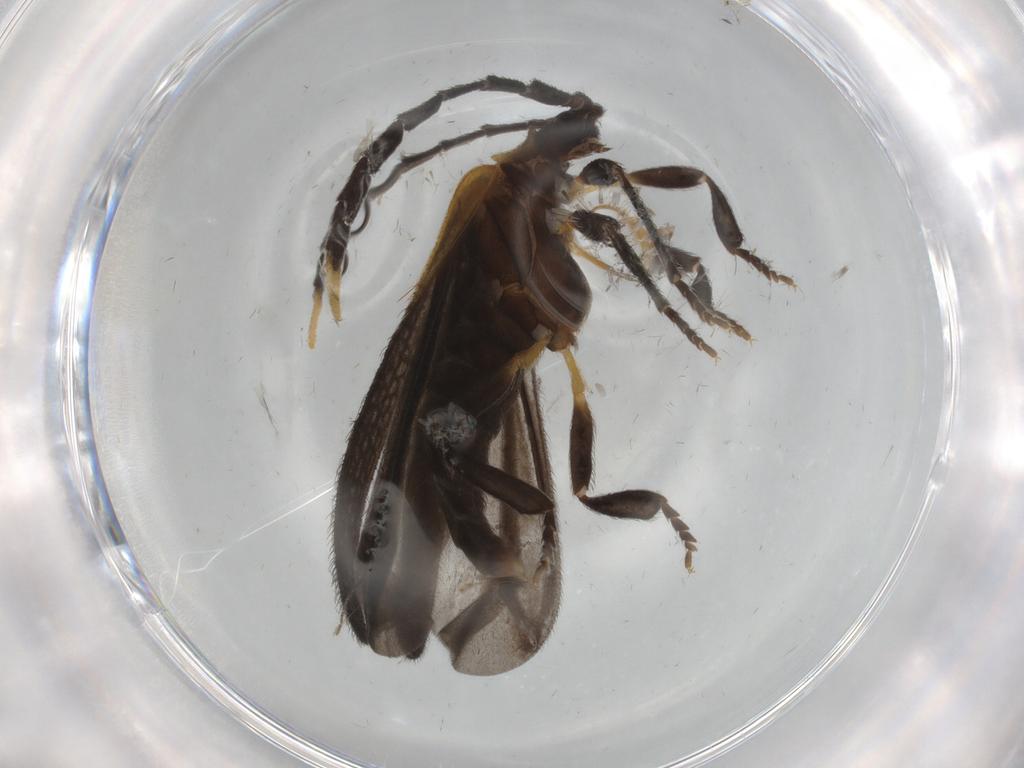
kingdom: Animalia
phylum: Arthropoda
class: Insecta
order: Coleoptera
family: Lycidae
